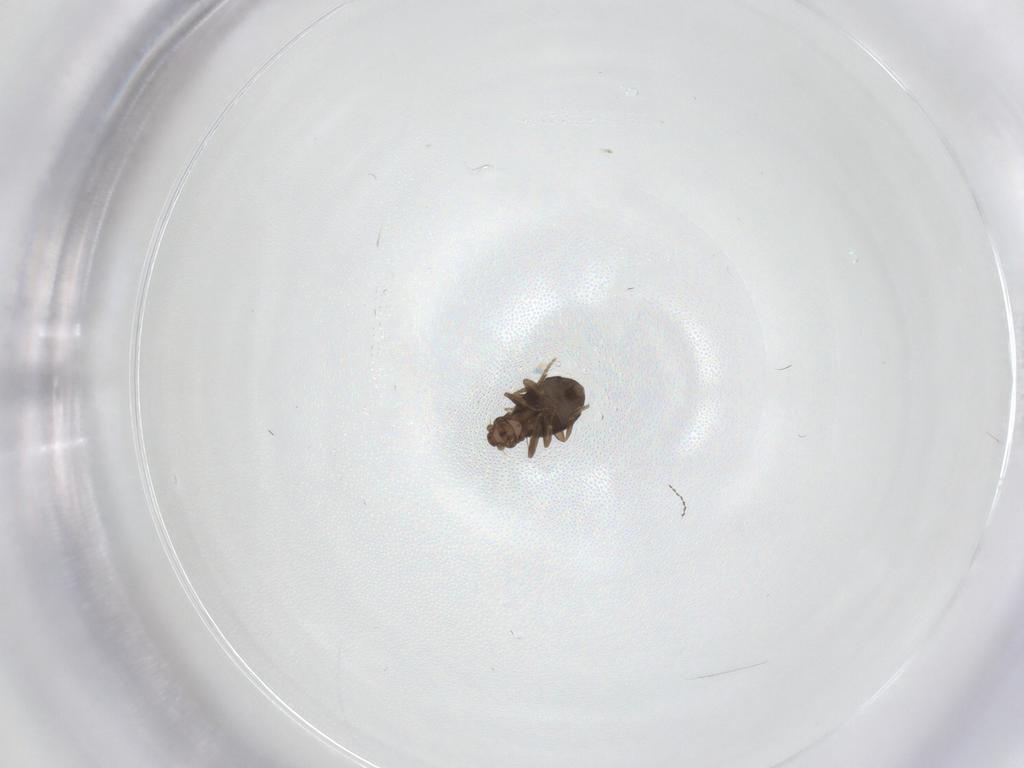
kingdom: Animalia
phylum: Arthropoda
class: Insecta
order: Diptera
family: Phoridae
